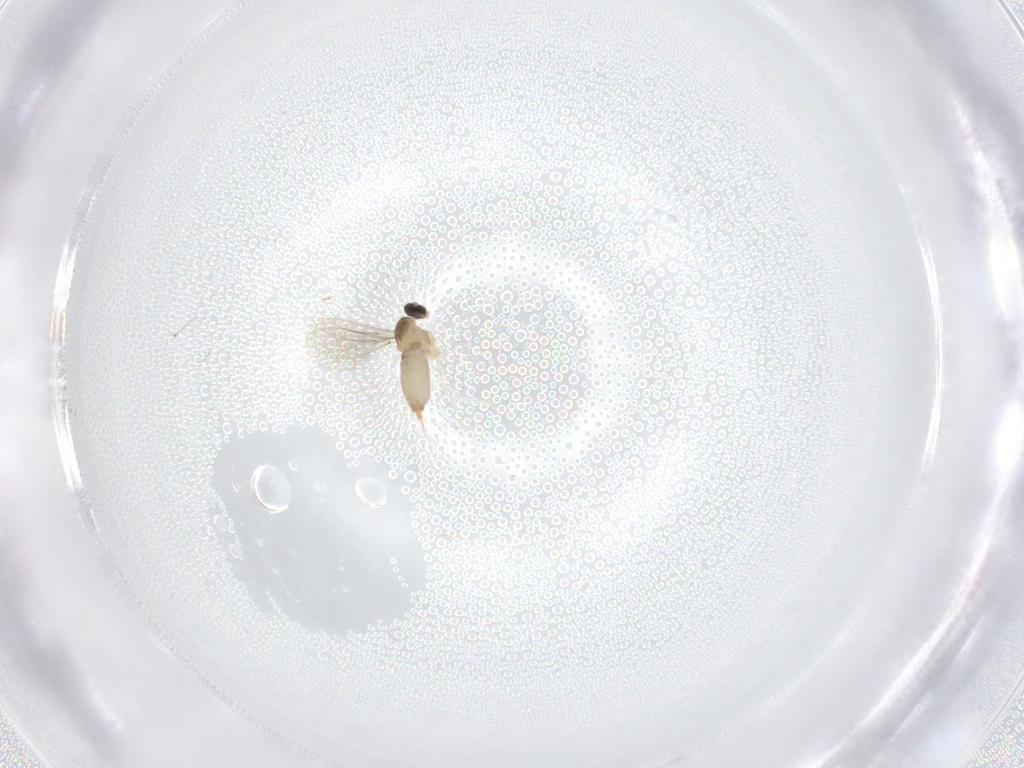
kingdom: Animalia
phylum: Arthropoda
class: Insecta
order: Diptera
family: Cecidomyiidae
